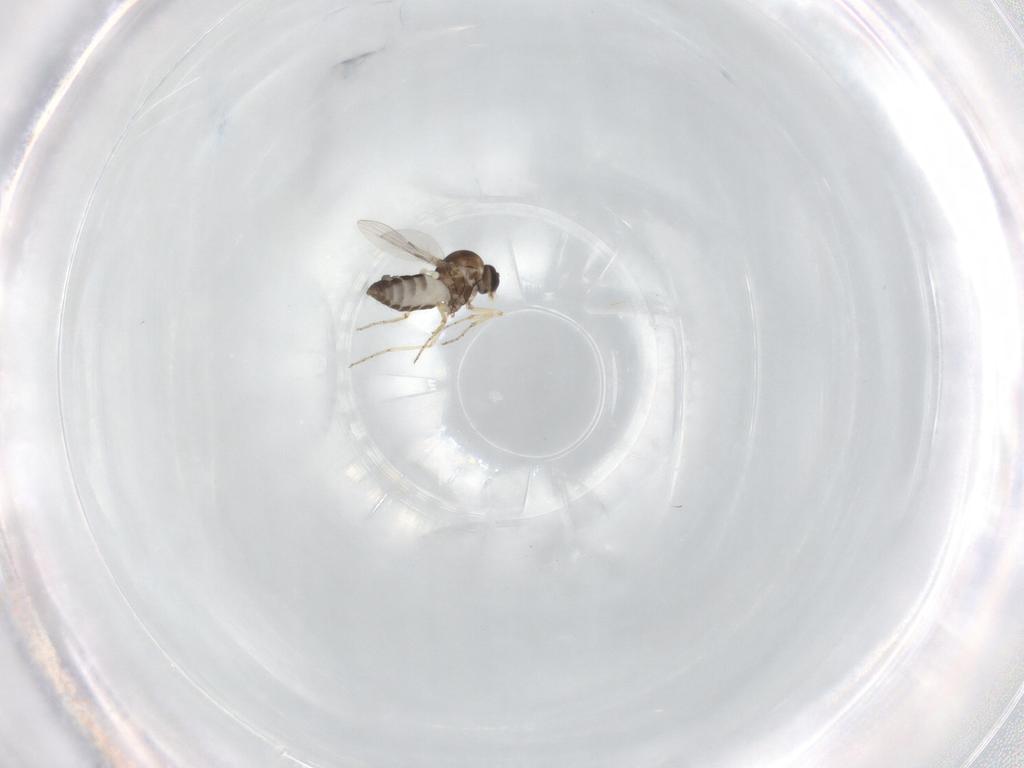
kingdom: Animalia
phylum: Arthropoda
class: Insecta
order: Diptera
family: Ceratopogonidae
